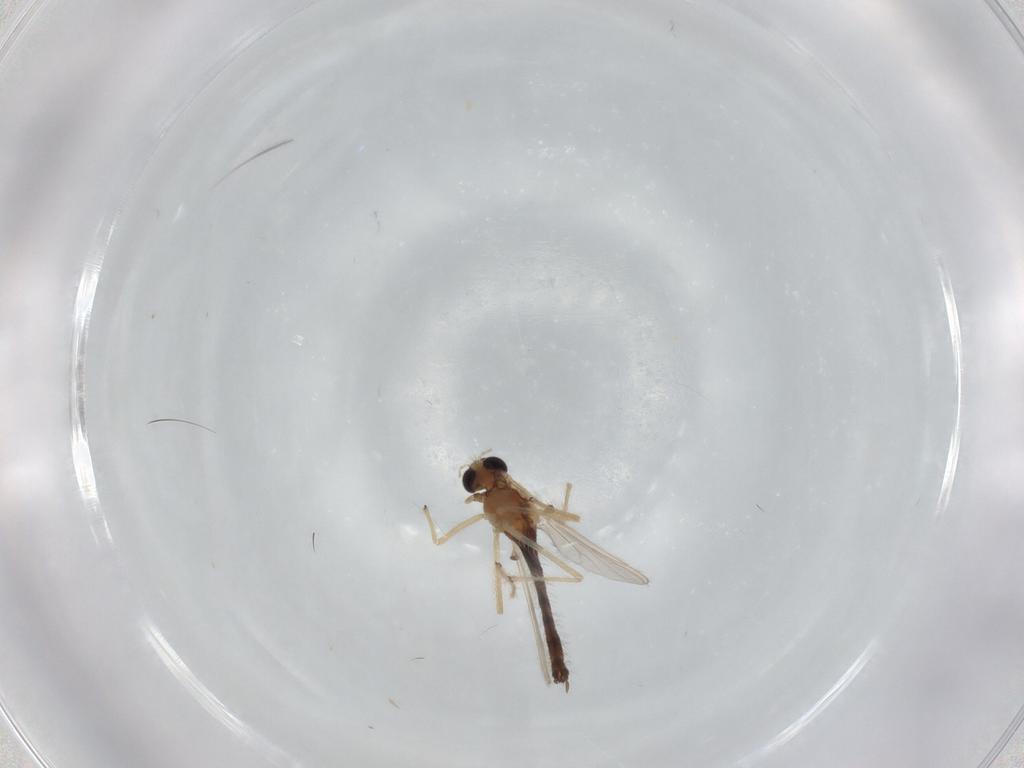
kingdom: Animalia
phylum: Arthropoda
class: Insecta
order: Diptera
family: Chironomidae
